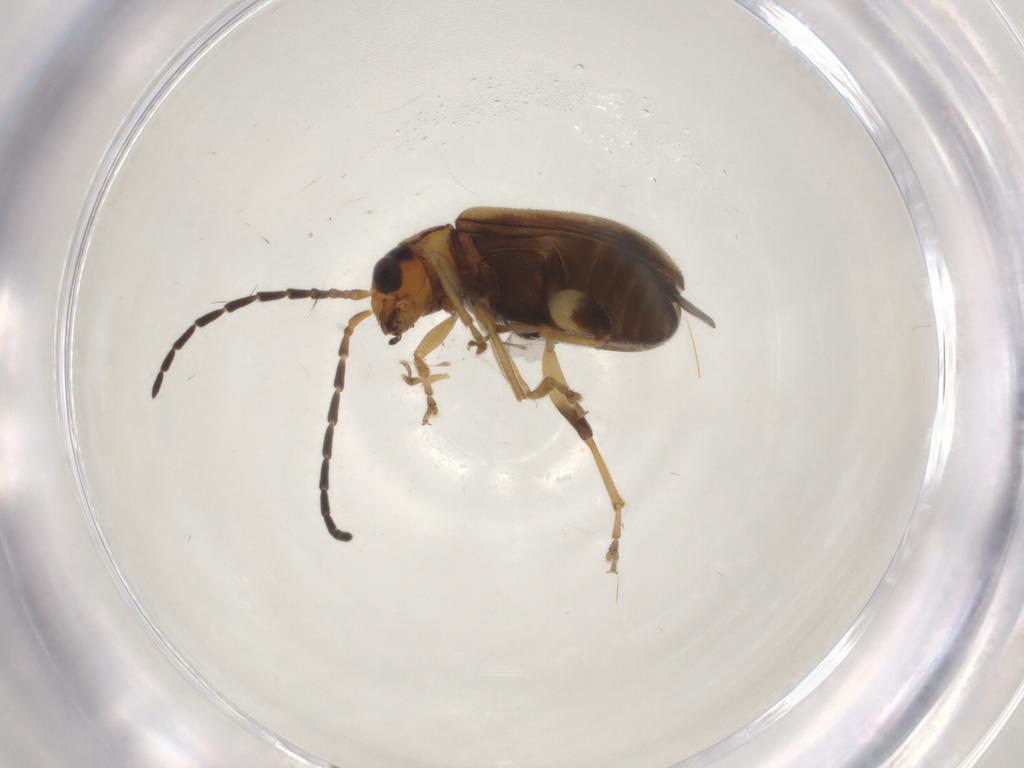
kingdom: Animalia
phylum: Arthropoda
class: Insecta
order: Coleoptera
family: Chrysomelidae
